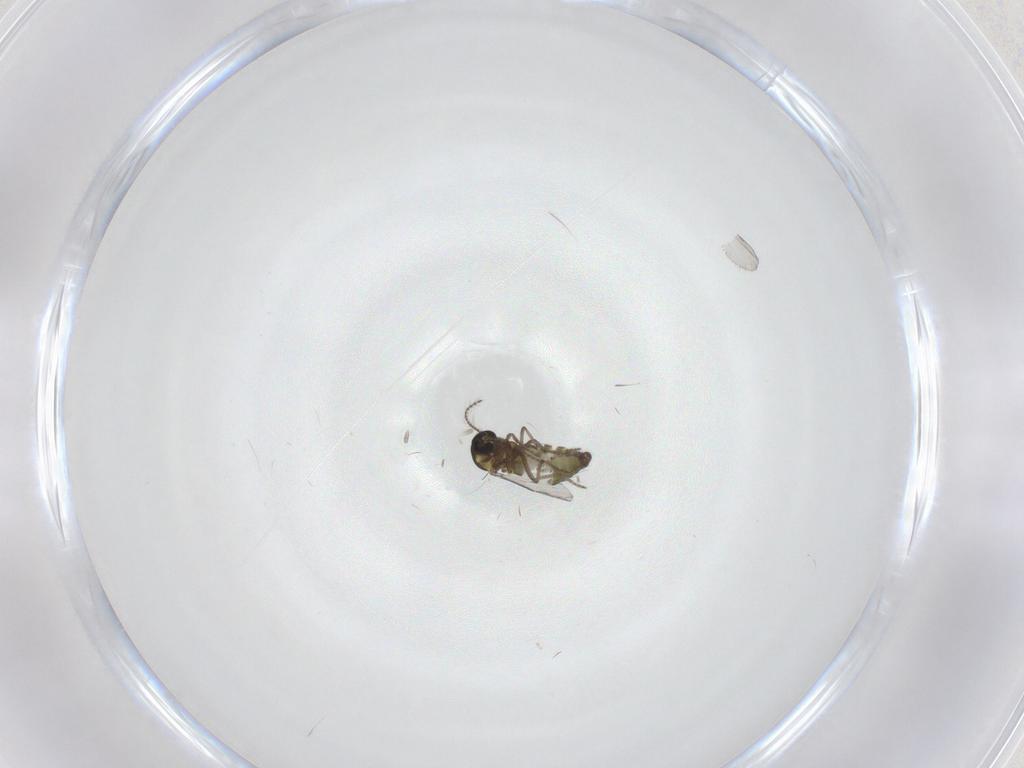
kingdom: Animalia
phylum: Arthropoda
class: Insecta
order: Diptera
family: Ceratopogonidae
